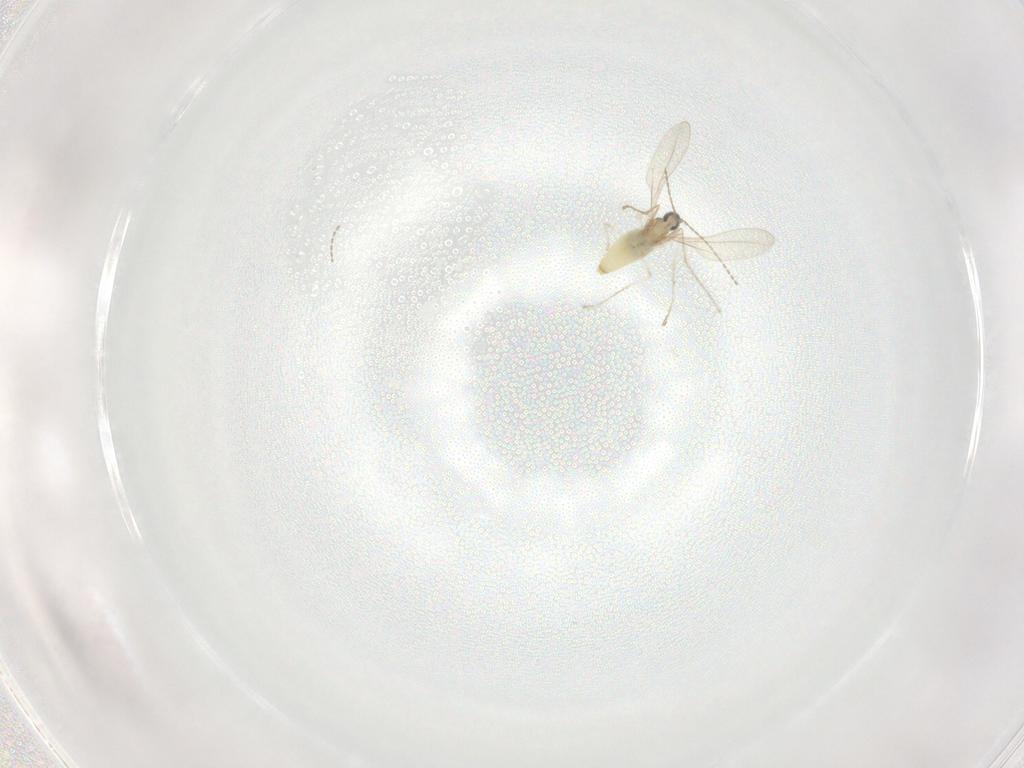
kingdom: Animalia
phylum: Arthropoda
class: Insecta
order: Diptera
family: Cecidomyiidae
